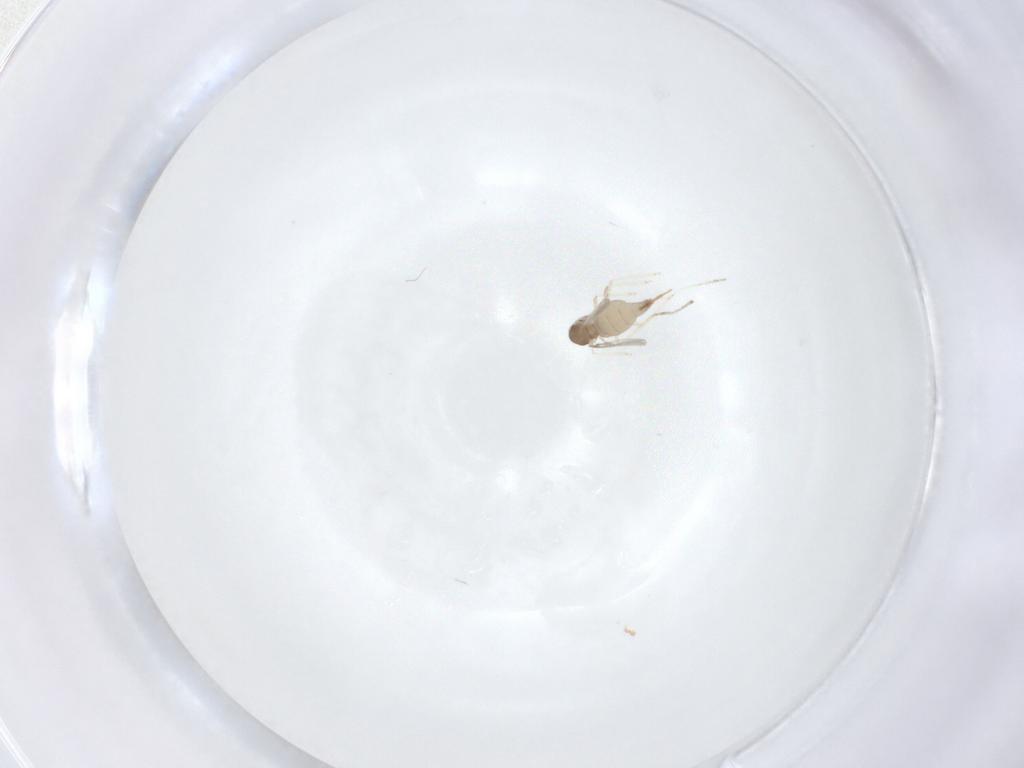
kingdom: Animalia
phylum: Arthropoda
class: Insecta
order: Diptera
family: Cecidomyiidae
